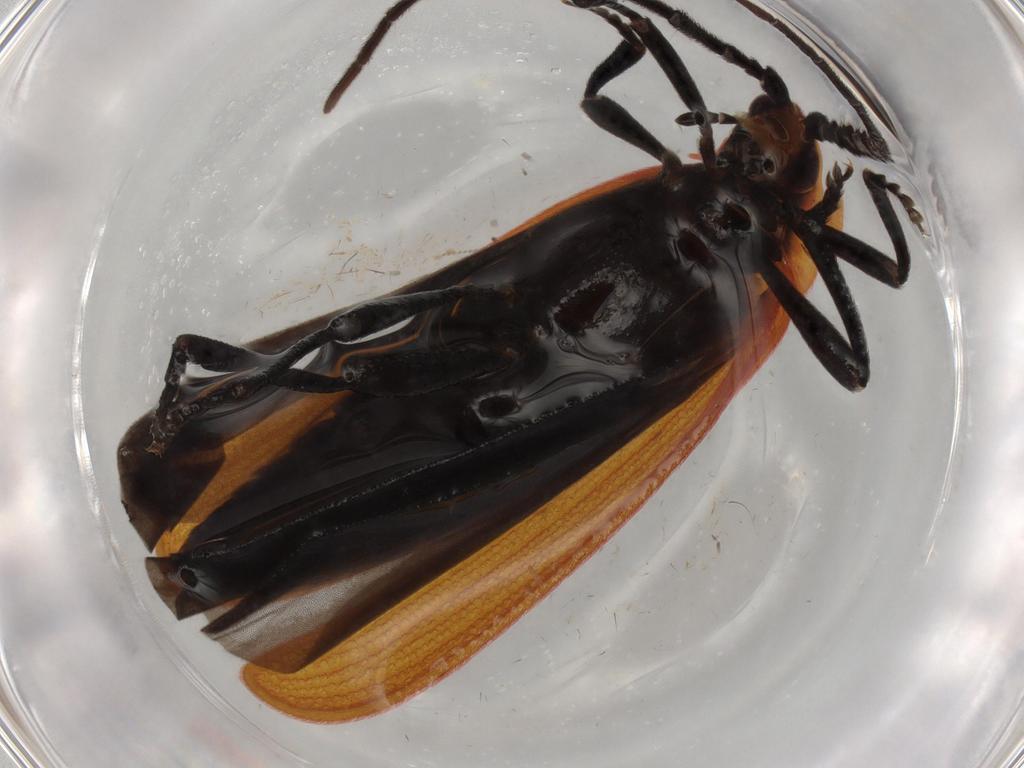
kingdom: Animalia
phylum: Arthropoda
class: Insecta
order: Coleoptera
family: Lycidae
